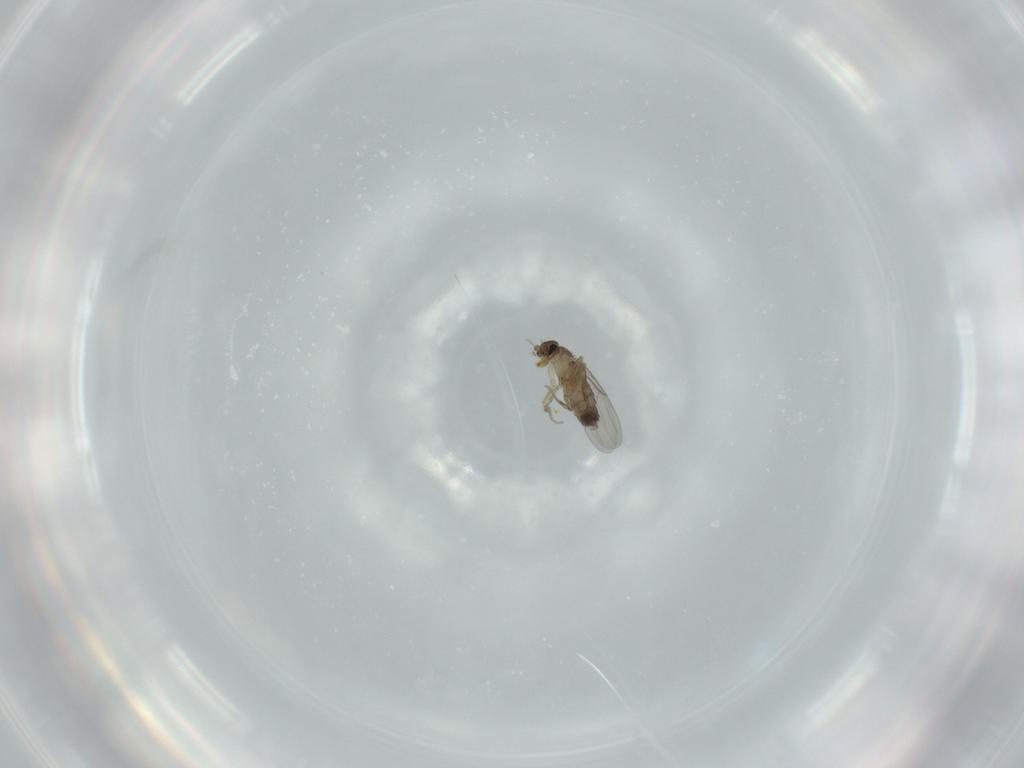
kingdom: Animalia
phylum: Arthropoda
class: Insecta
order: Diptera
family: Phoridae
